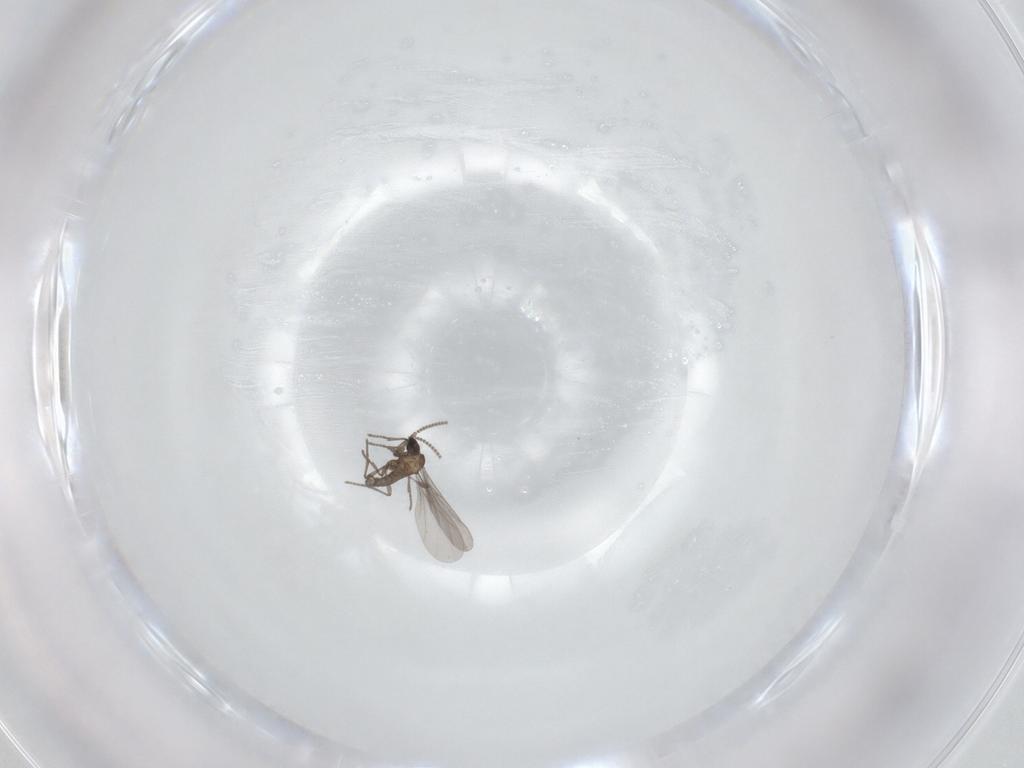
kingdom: Animalia
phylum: Arthropoda
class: Insecta
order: Diptera
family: Sciaridae
